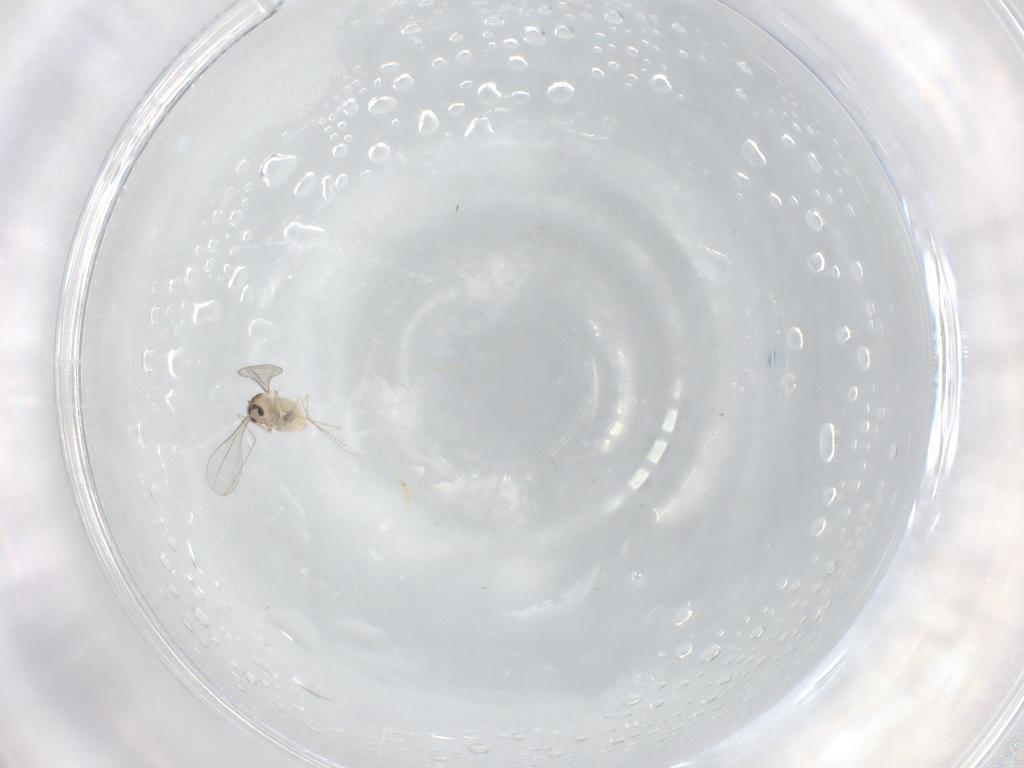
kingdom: Animalia
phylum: Arthropoda
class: Insecta
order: Diptera
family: Cecidomyiidae
